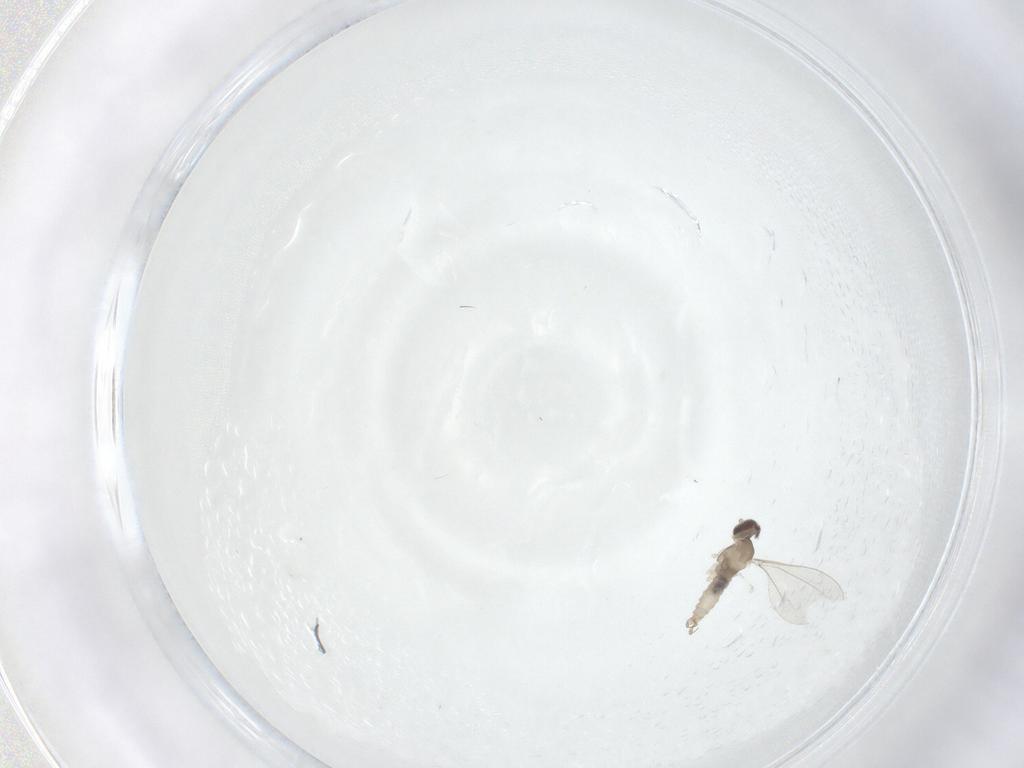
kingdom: Animalia
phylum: Arthropoda
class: Insecta
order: Diptera
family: Cecidomyiidae
